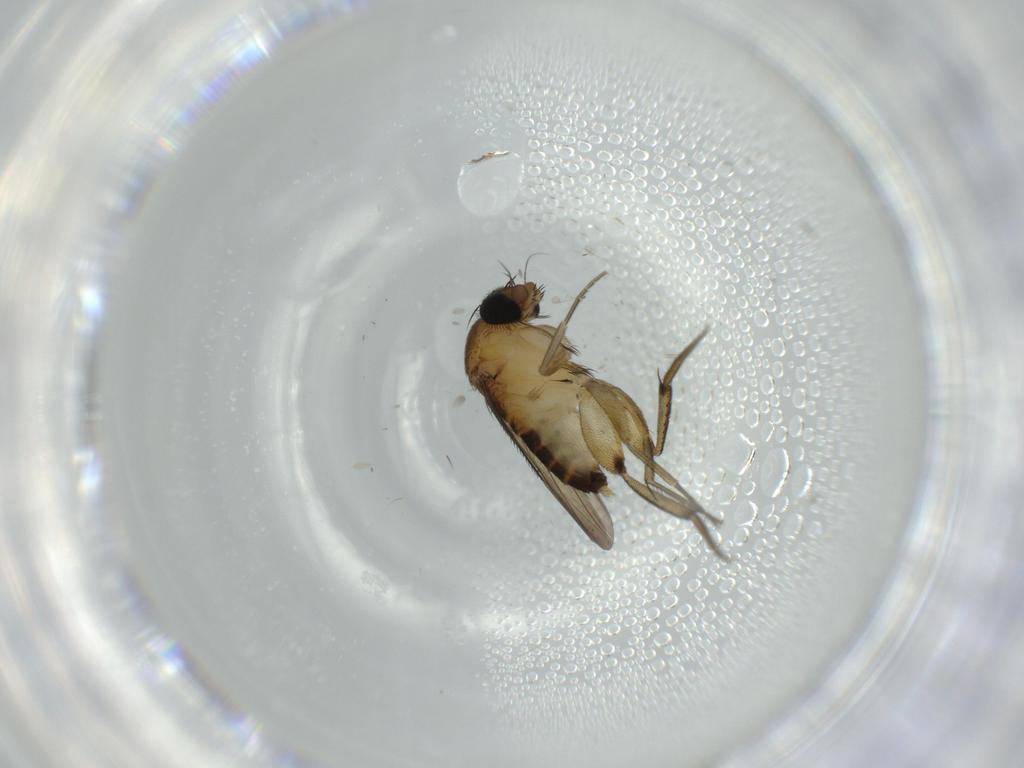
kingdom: Animalia
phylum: Arthropoda
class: Insecta
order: Diptera
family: Phoridae
